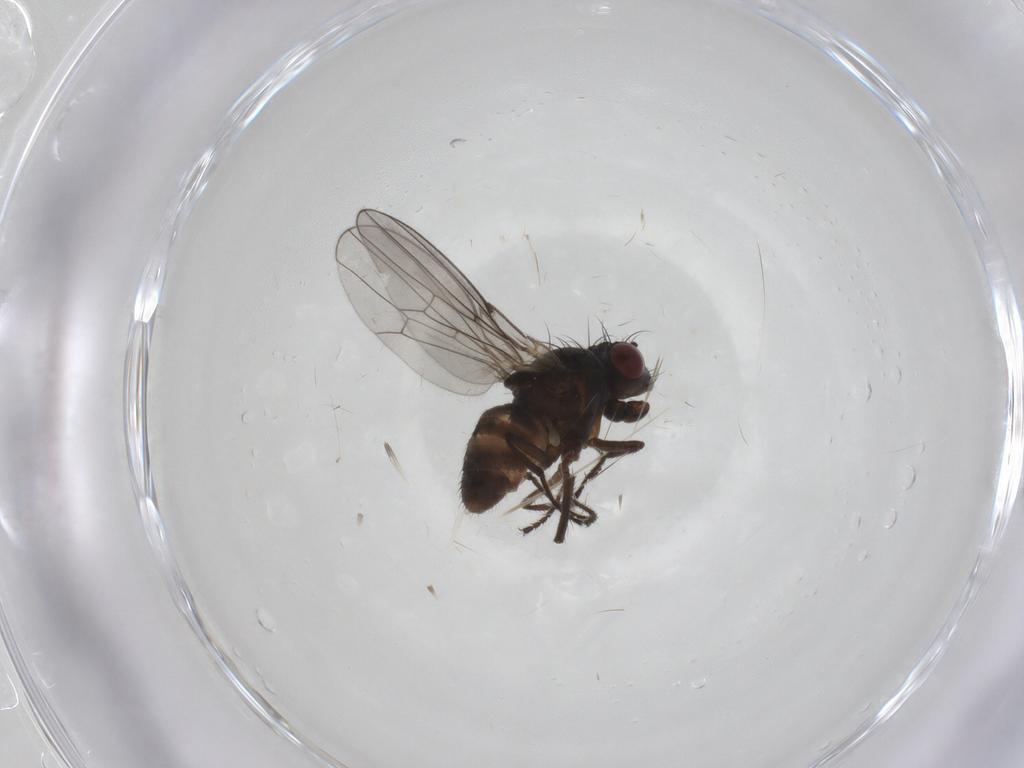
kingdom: Animalia
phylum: Arthropoda
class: Insecta
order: Diptera
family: Ephydridae
